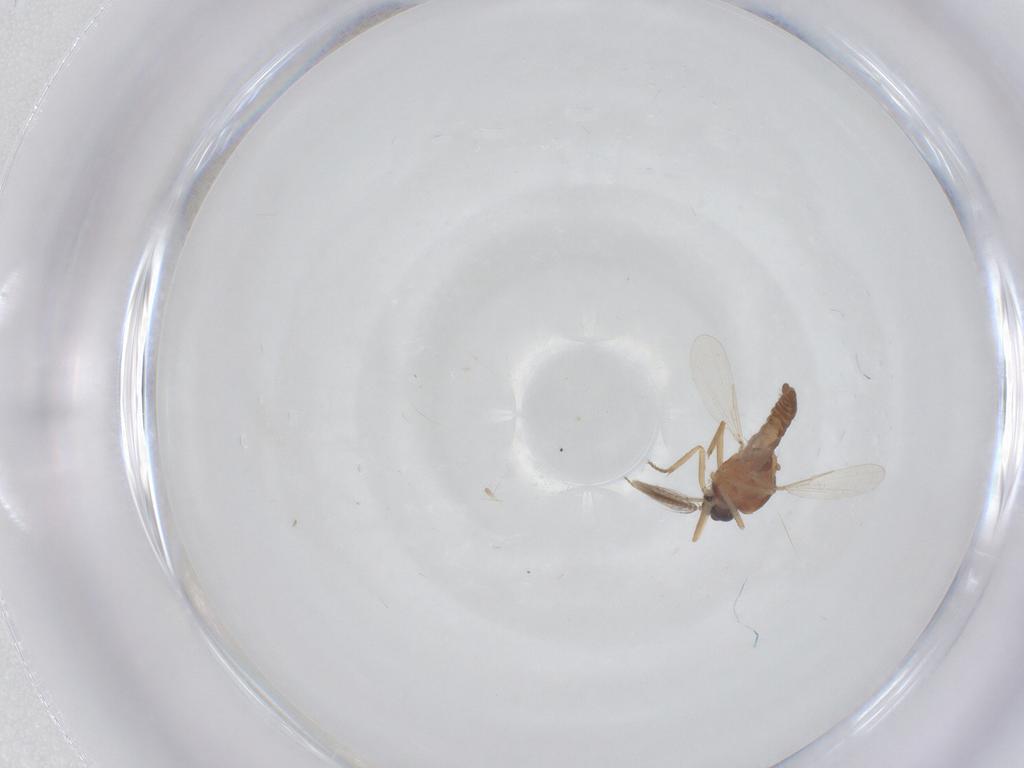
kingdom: Animalia
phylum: Arthropoda
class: Insecta
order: Diptera
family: Ceratopogonidae
